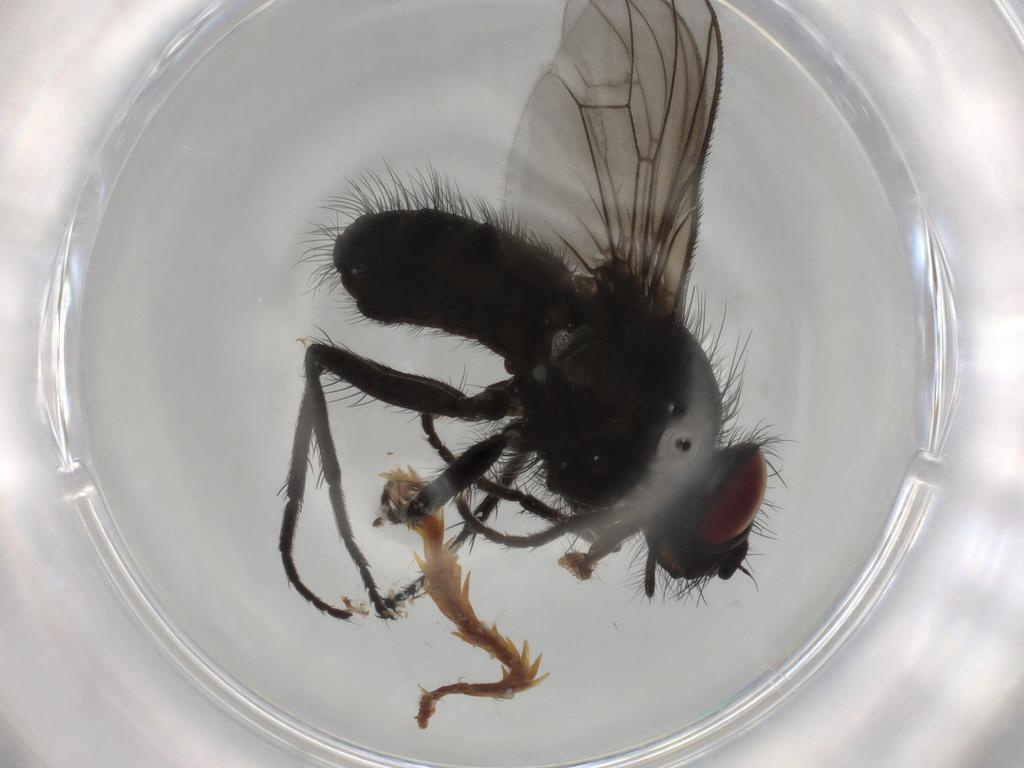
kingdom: Animalia
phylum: Arthropoda
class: Insecta
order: Diptera
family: Muscidae
